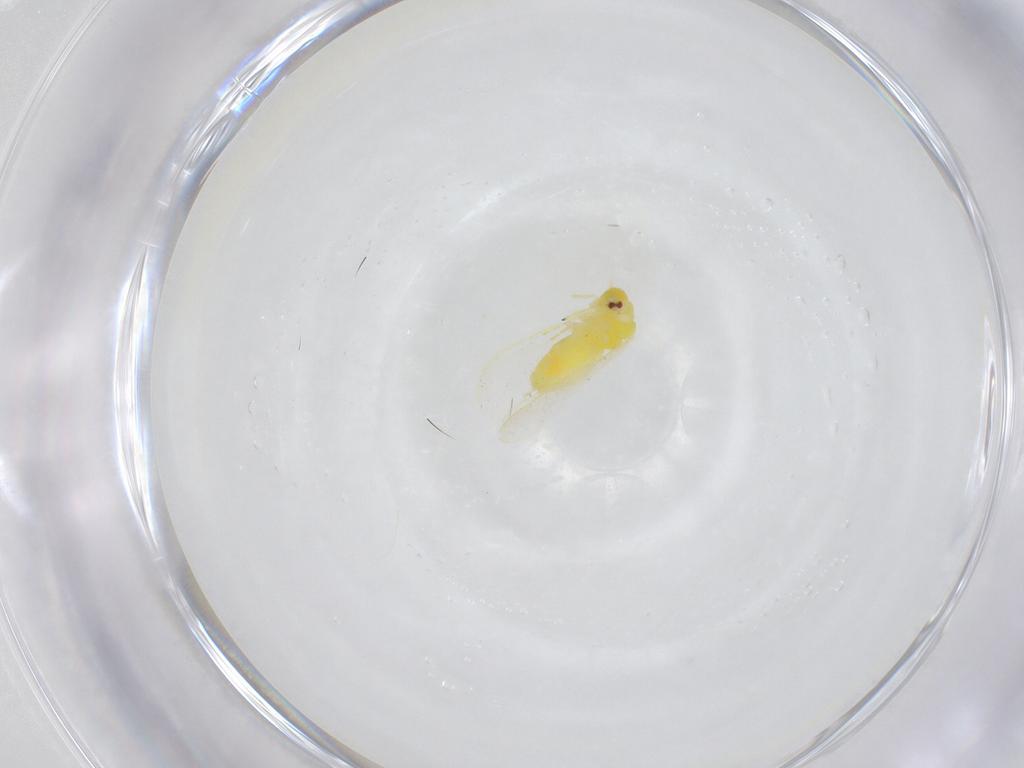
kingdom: Animalia
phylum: Arthropoda
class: Insecta
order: Hemiptera
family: Aleyrodidae
